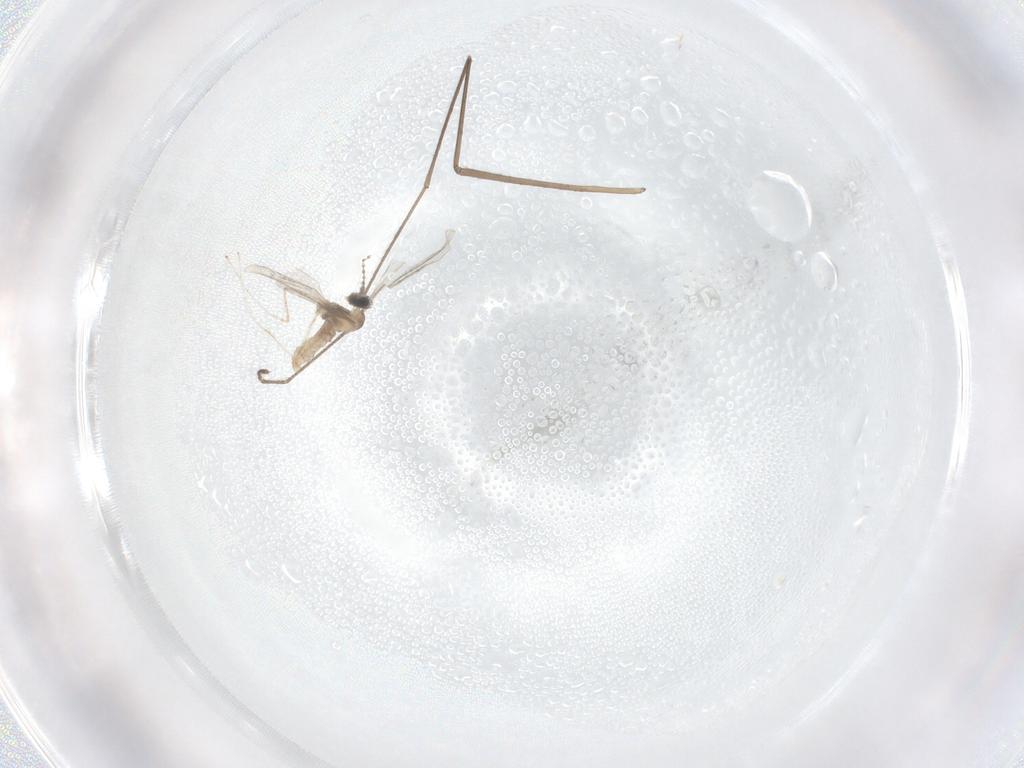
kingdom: Animalia
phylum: Arthropoda
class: Insecta
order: Diptera
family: Cecidomyiidae
